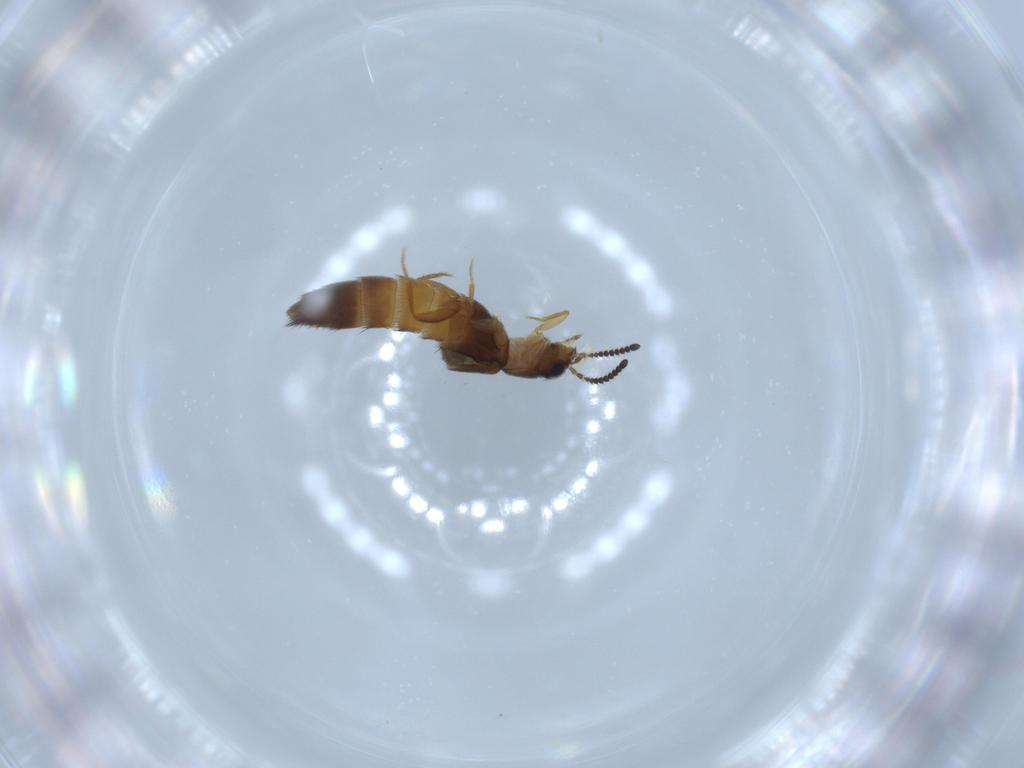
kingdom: Animalia
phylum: Arthropoda
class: Insecta
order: Coleoptera
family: Staphylinidae
